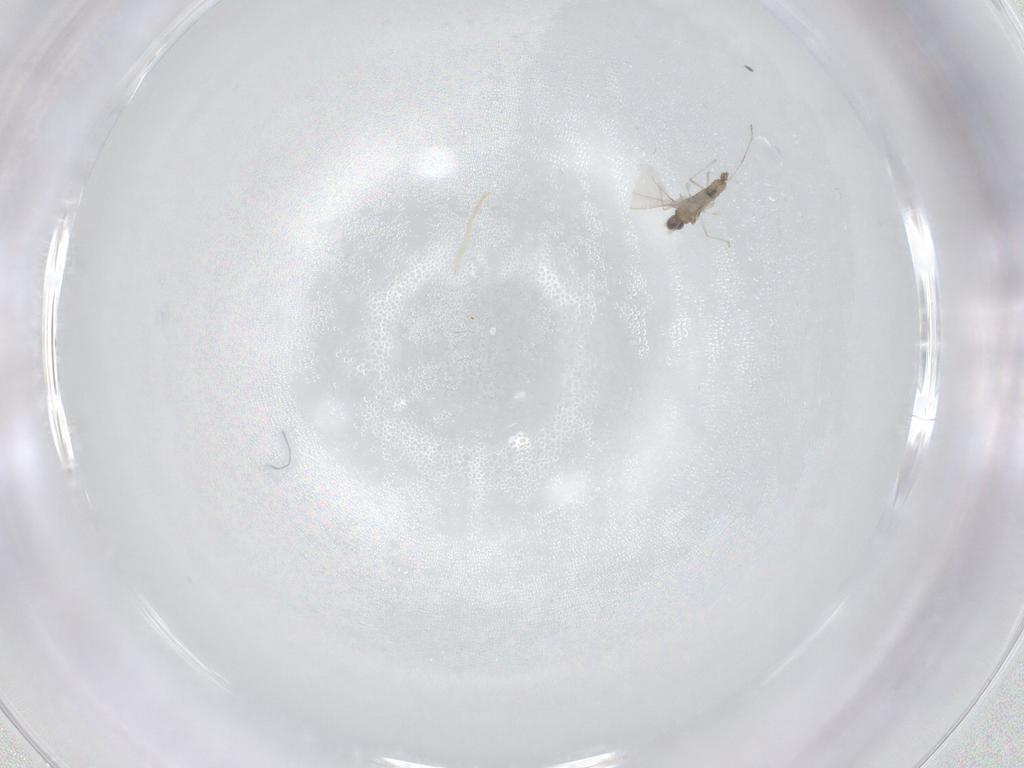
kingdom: Animalia
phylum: Arthropoda
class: Insecta
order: Diptera
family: Cecidomyiidae
